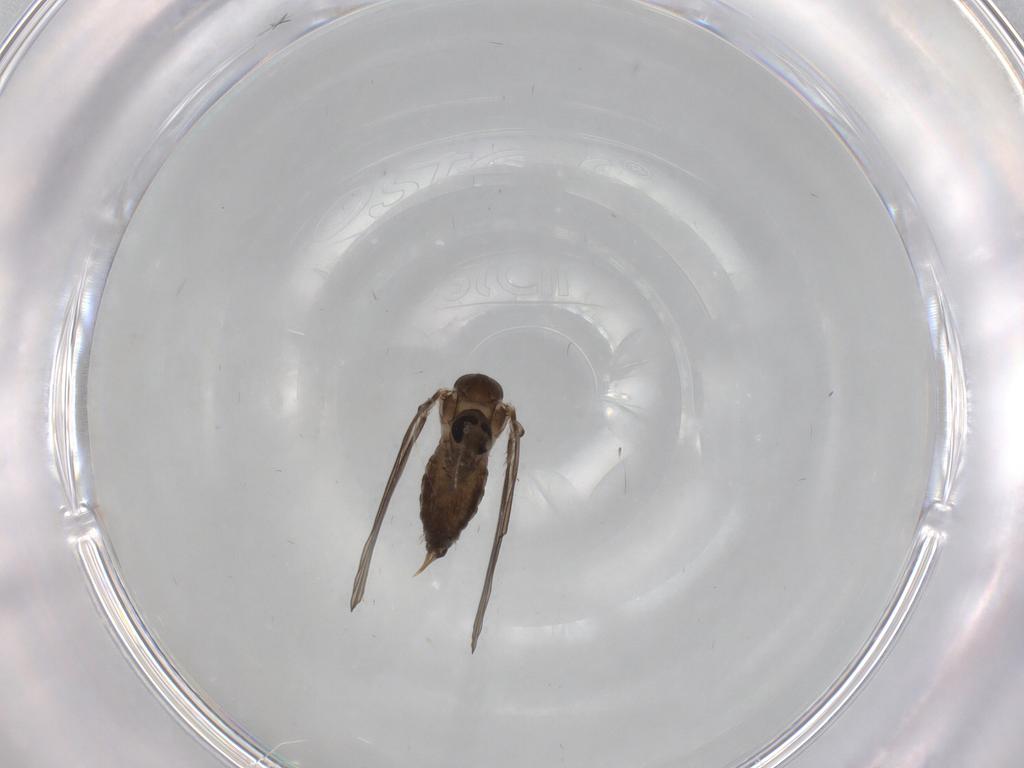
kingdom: Animalia
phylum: Arthropoda
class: Insecta
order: Diptera
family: Psychodidae
